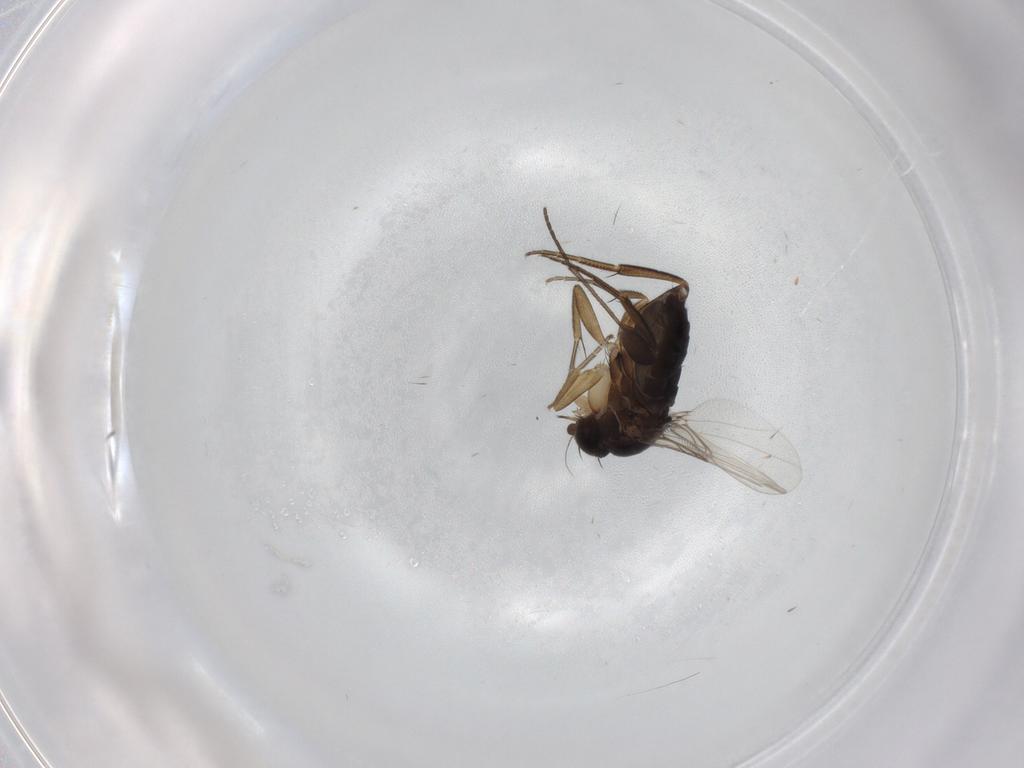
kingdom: Animalia
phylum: Arthropoda
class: Insecta
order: Diptera
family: Phoridae
